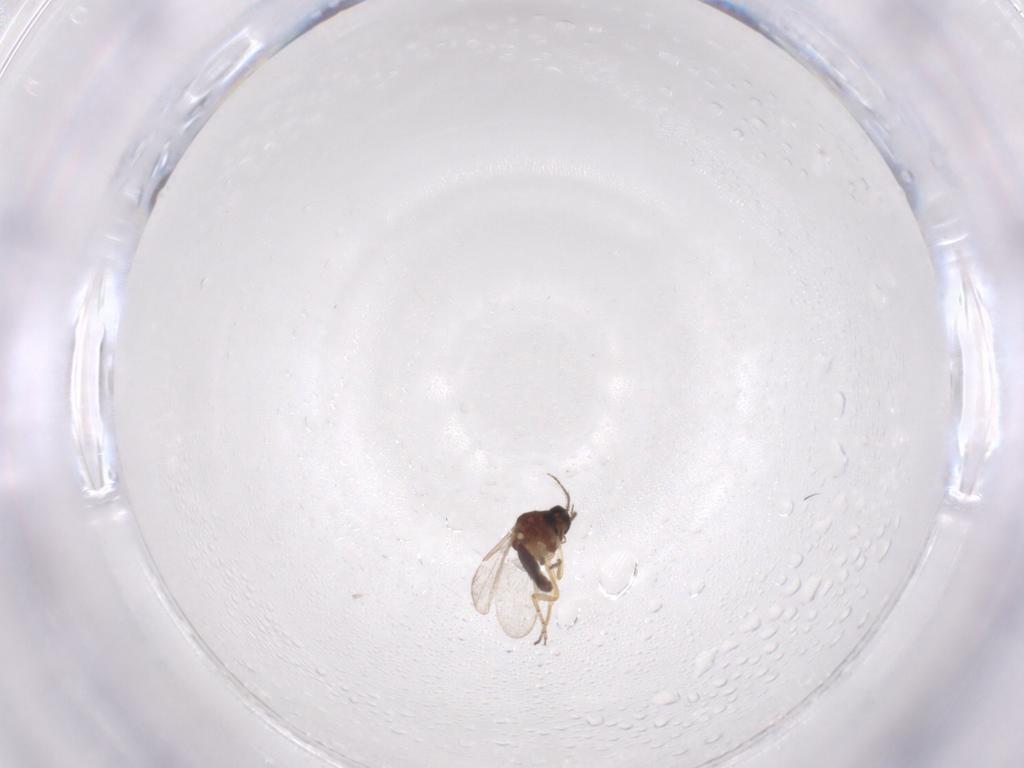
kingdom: Animalia
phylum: Arthropoda
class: Insecta
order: Diptera
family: Ceratopogonidae
